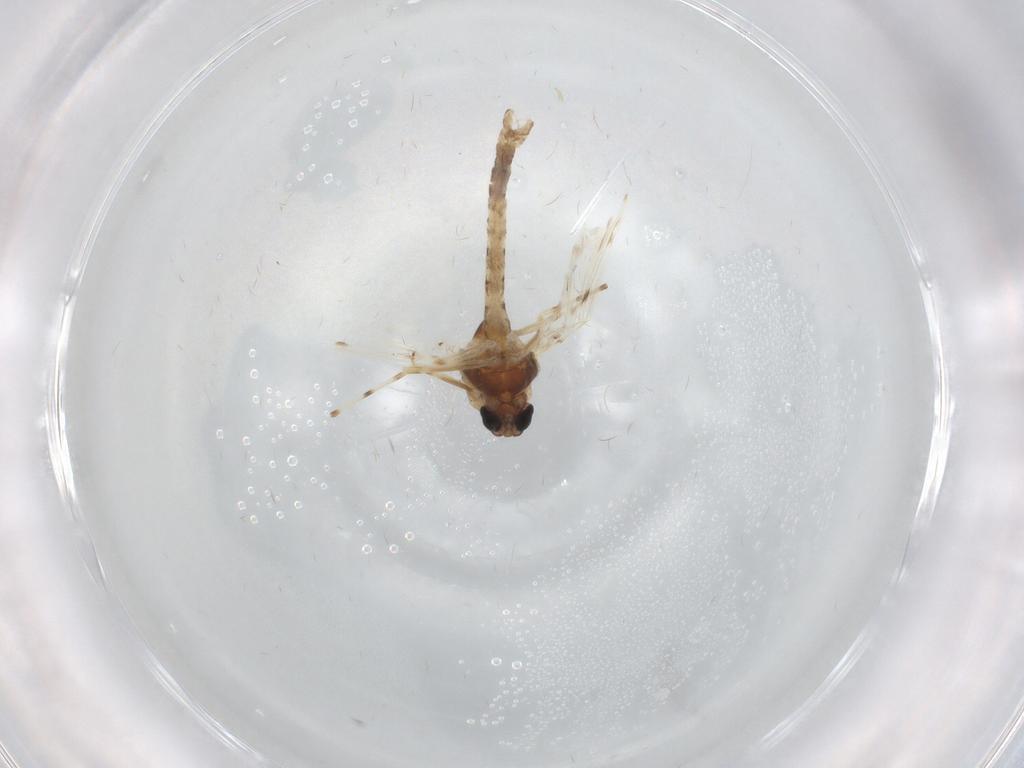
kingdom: Animalia
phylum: Arthropoda
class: Insecta
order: Diptera
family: Chironomidae
